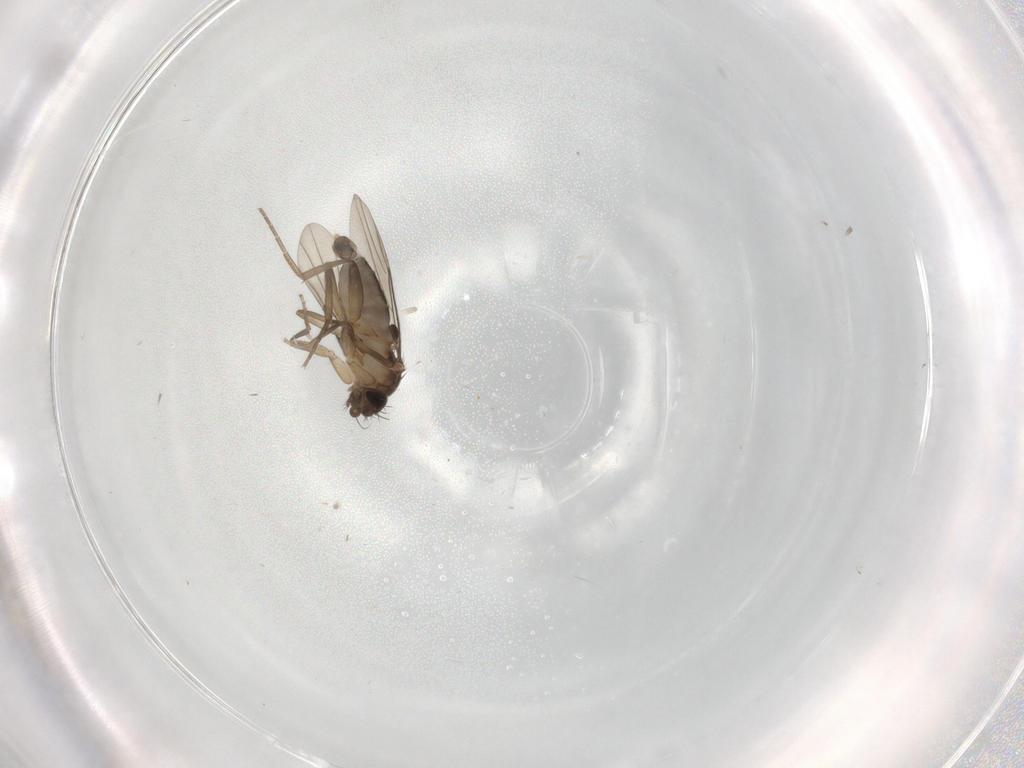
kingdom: Animalia
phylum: Arthropoda
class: Insecta
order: Diptera
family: Phoridae
